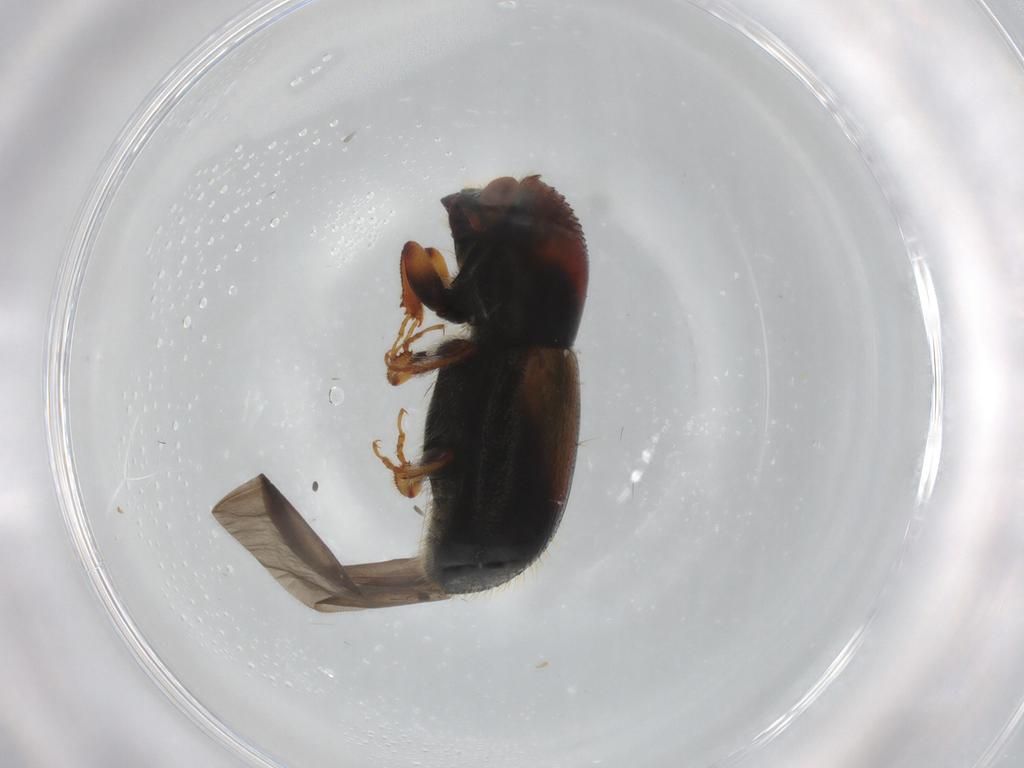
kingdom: Animalia
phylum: Arthropoda
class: Insecta
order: Coleoptera
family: Curculionidae
